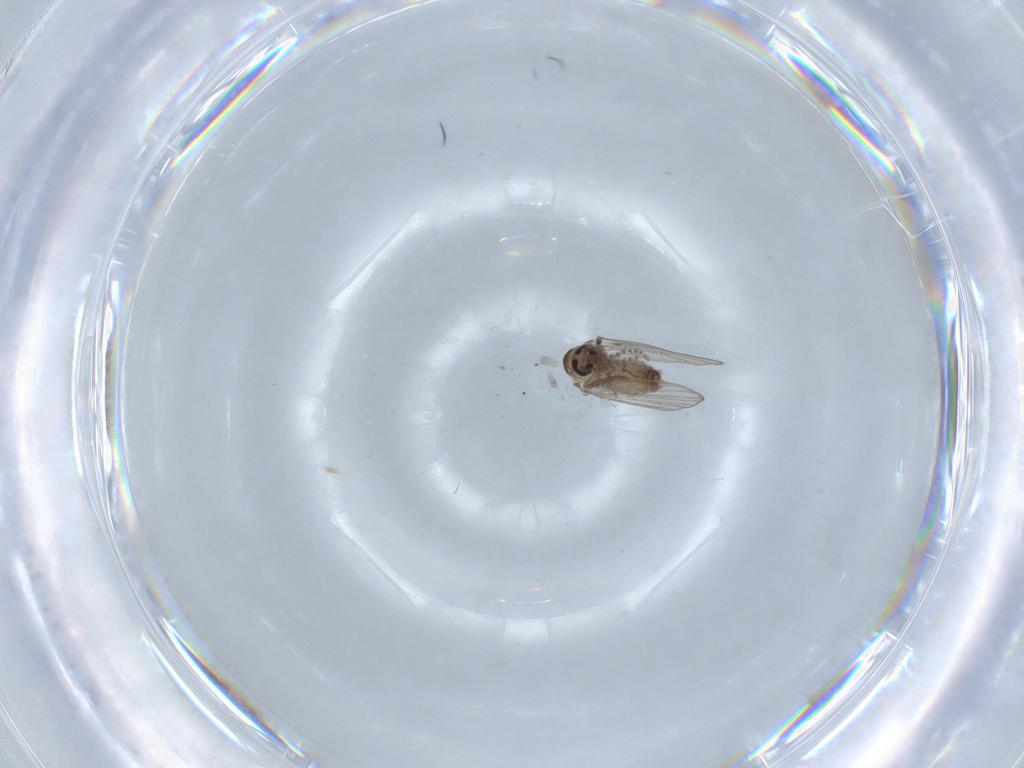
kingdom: Animalia
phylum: Arthropoda
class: Insecta
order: Diptera
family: Psychodidae
